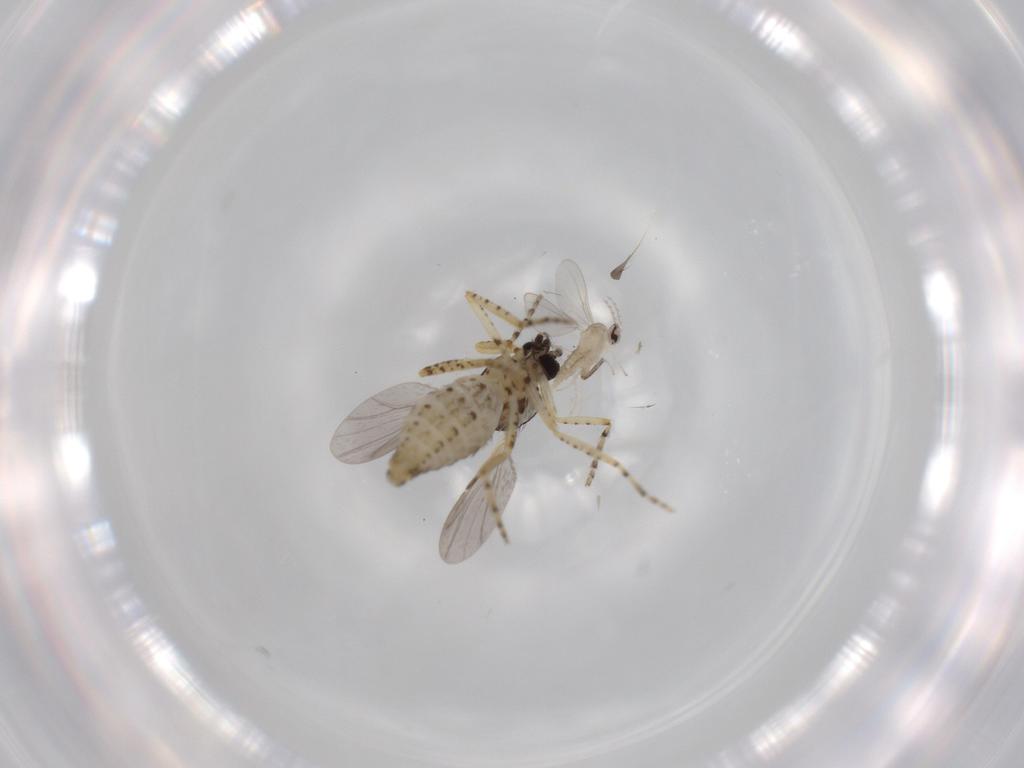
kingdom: Animalia
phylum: Arthropoda
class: Insecta
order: Diptera
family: Ceratopogonidae
